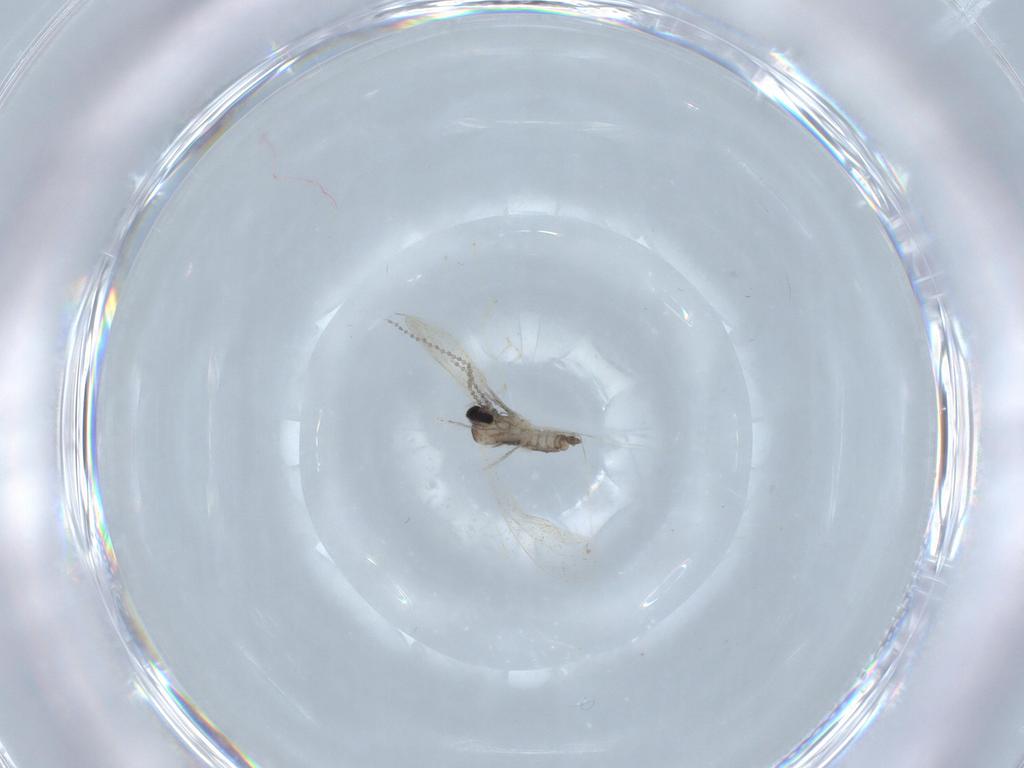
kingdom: Animalia
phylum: Arthropoda
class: Insecta
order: Diptera
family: Cecidomyiidae
